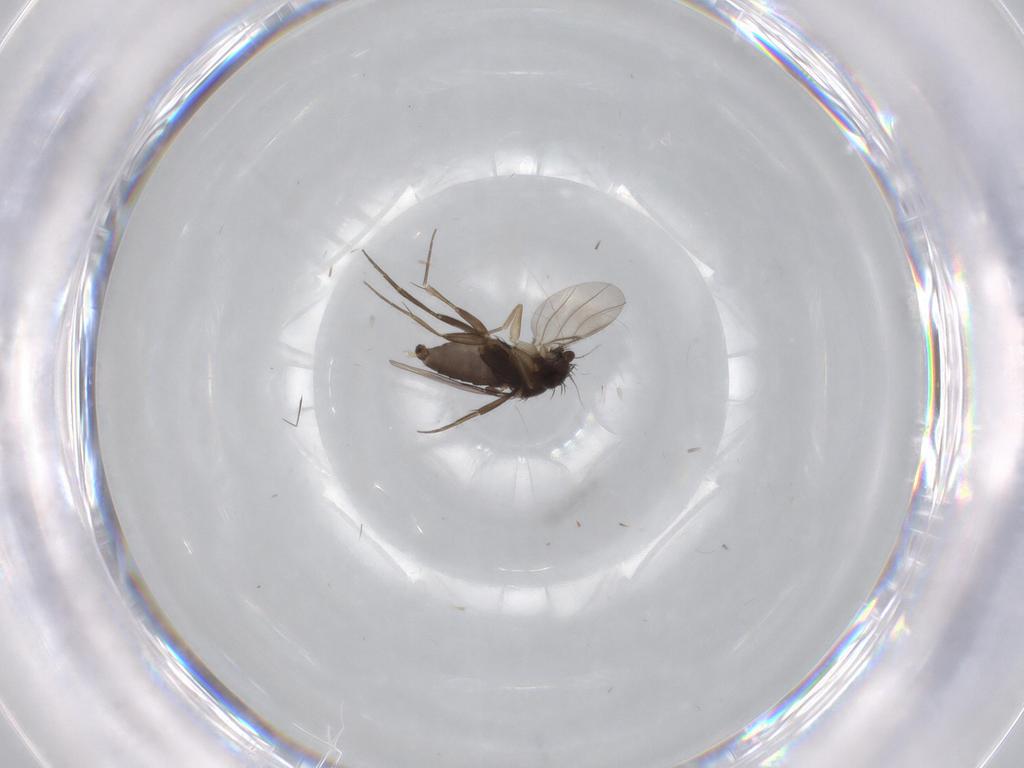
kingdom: Animalia
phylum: Arthropoda
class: Insecta
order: Diptera
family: Phoridae
